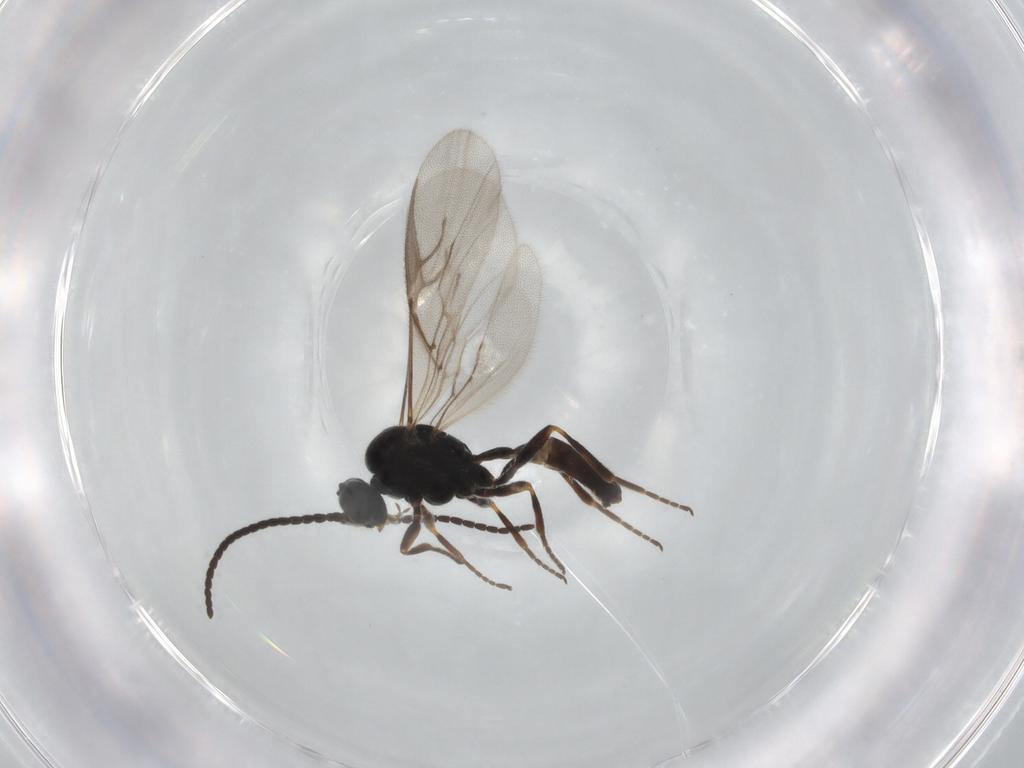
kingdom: Animalia
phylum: Arthropoda
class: Insecta
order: Hymenoptera
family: Braconidae
